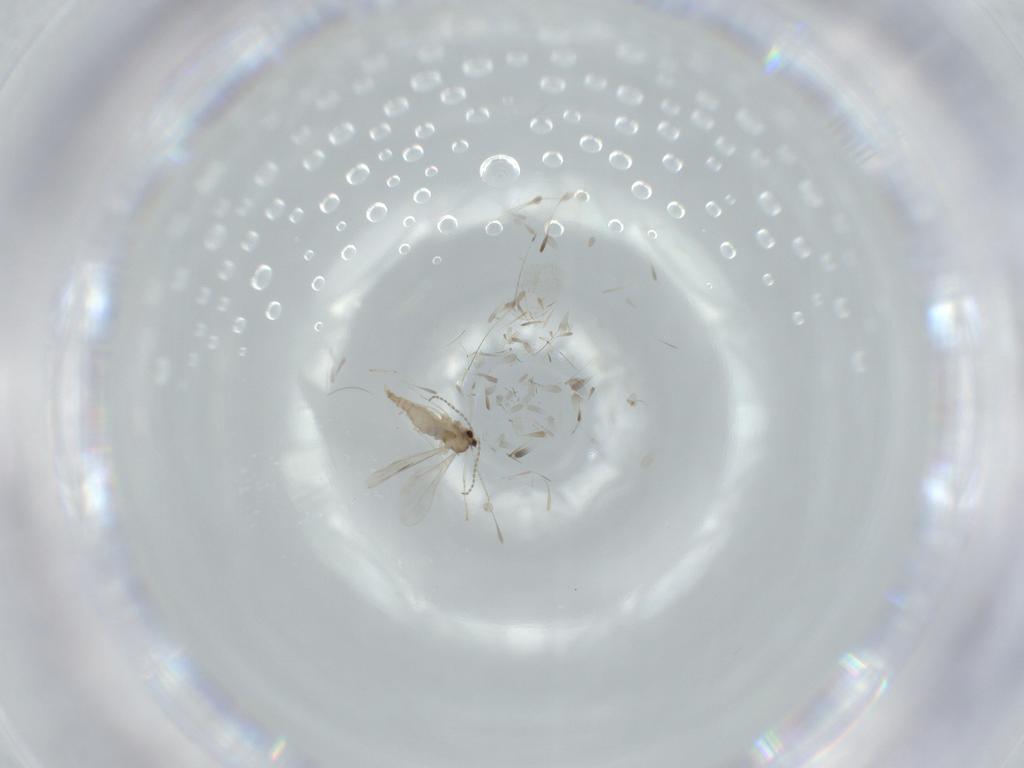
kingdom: Animalia
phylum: Arthropoda
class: Insecta
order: Diptera
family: Cecidomyiidae
